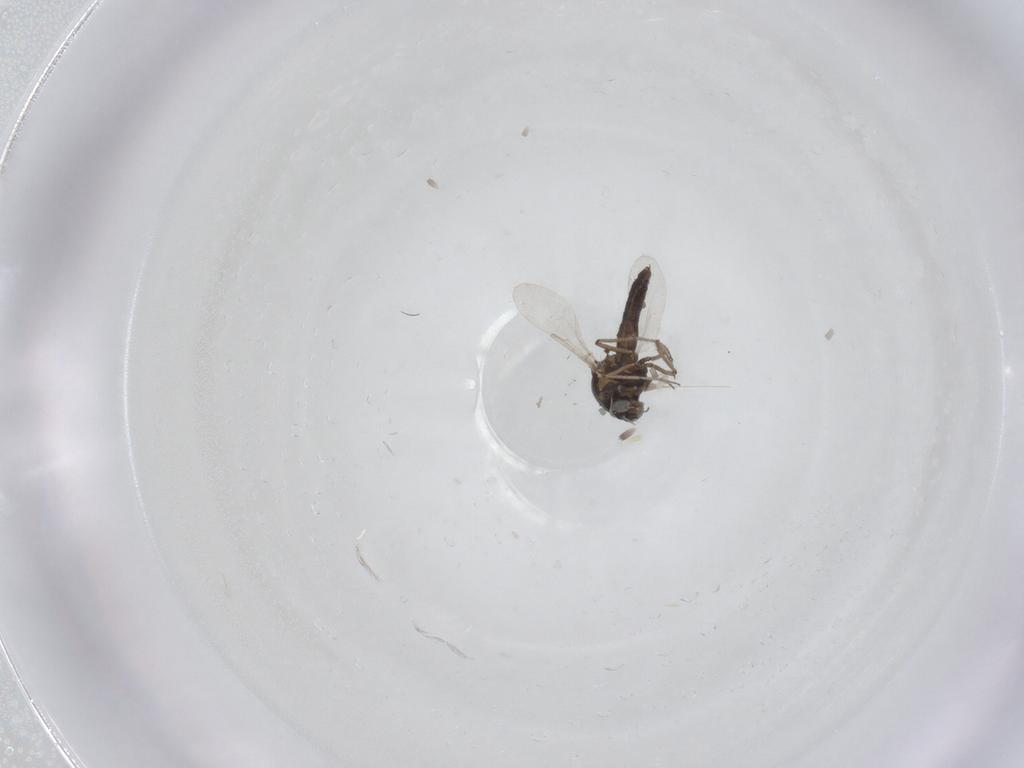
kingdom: Animalia
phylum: Arthropoda
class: Insecta
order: Diptera
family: Ceratopogonidae
